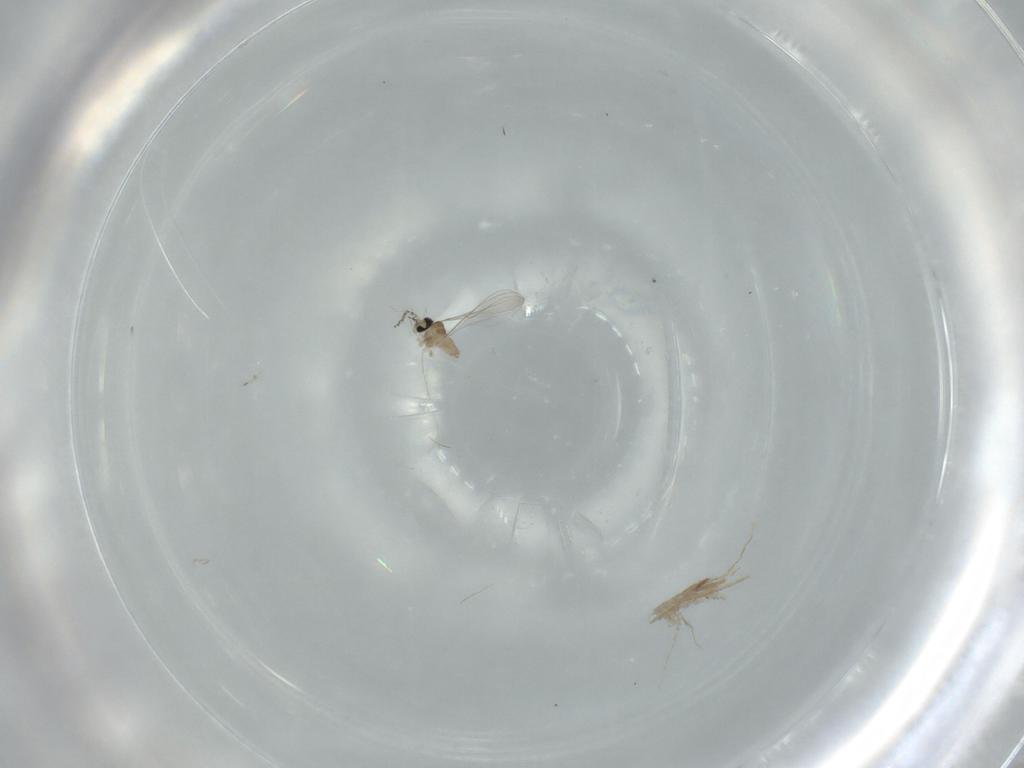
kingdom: Animalia
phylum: Arthropoda
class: Insecta
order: Diptera
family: Cecidomyiidae
